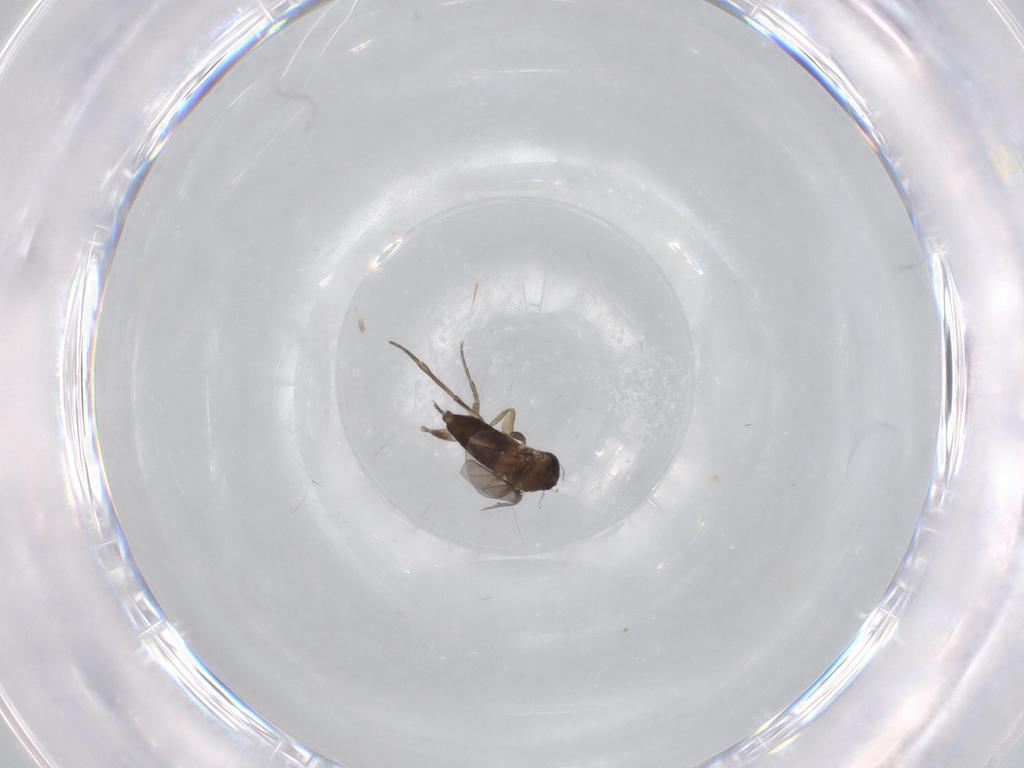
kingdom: Animalia
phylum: Arthropoda
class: Insecta
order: Diptera
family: Phoridae
